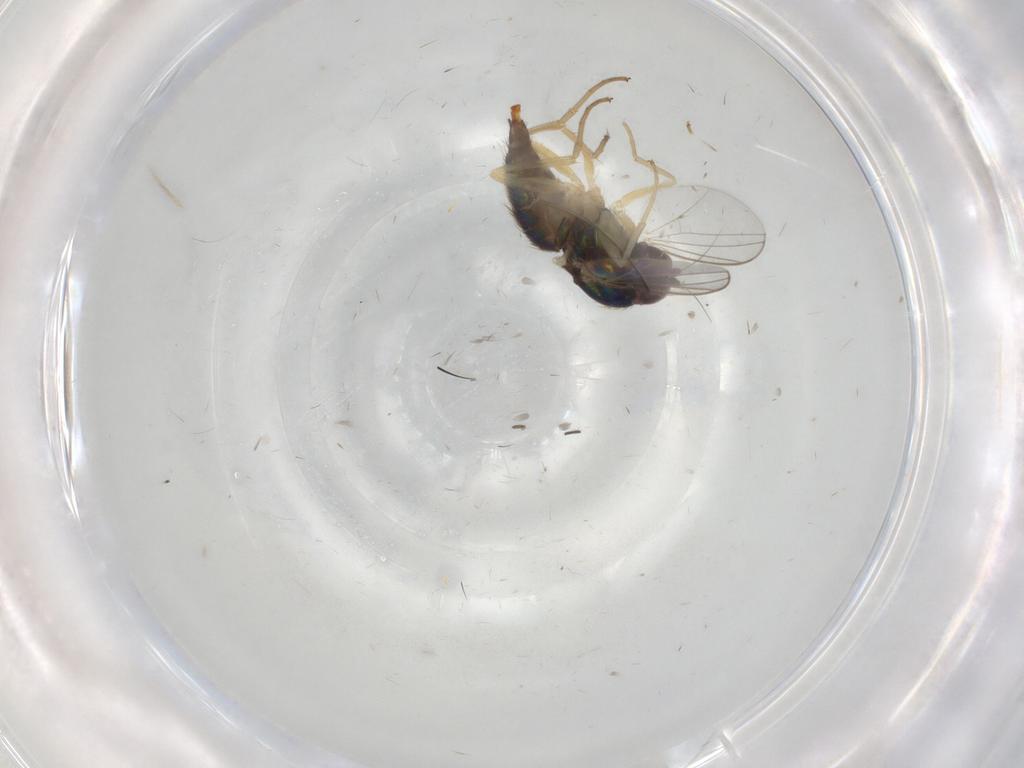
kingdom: Animalia
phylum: Arthropoda
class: Insecta
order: Diptera
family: Dolichopodidae
